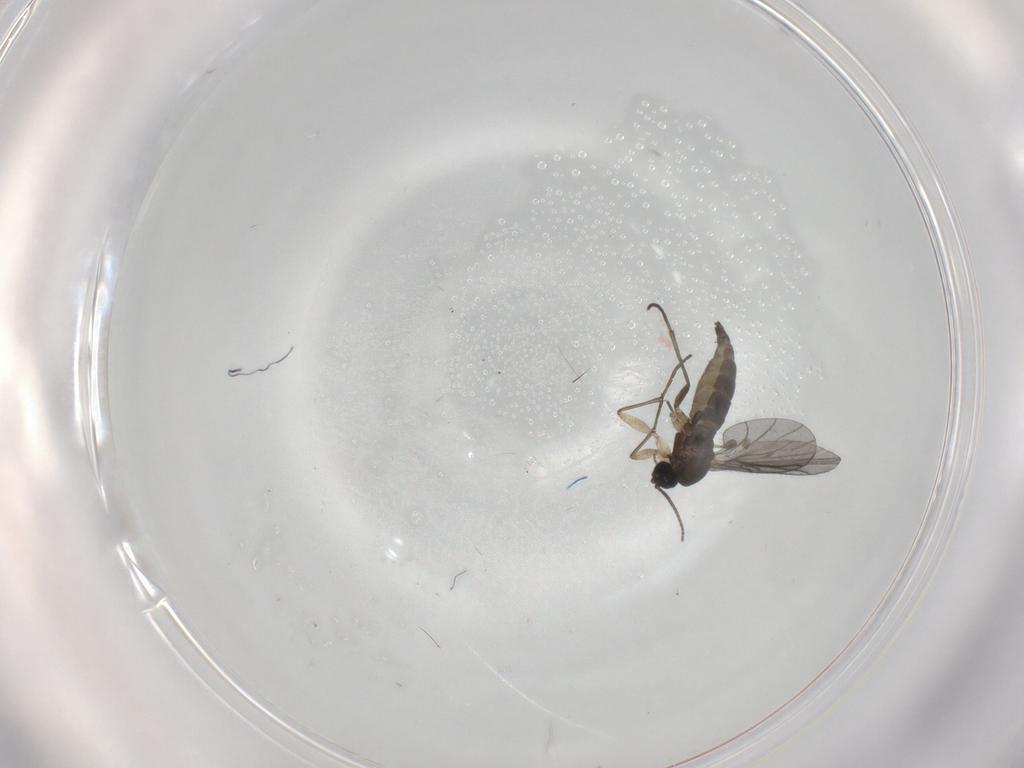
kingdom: Animalia
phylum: Arthropoda
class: Insecta
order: Diptera
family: Sciaridae
